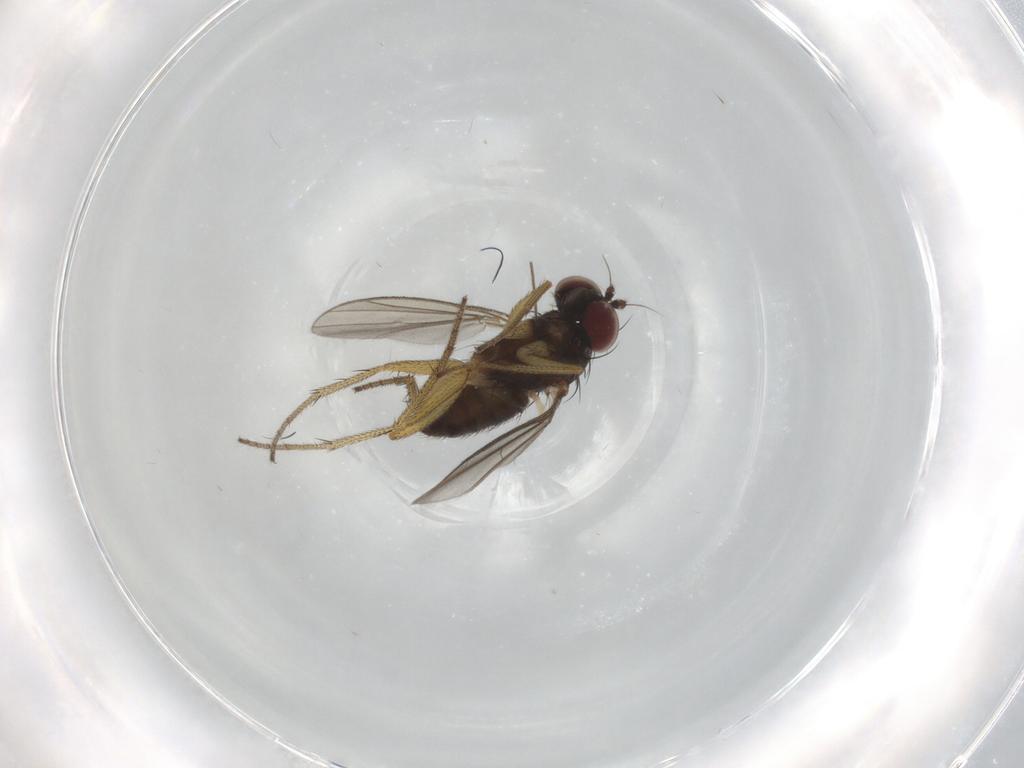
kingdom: Animalia
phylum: Arthropoda
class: Insecta
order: Diptera
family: Chironomidae
